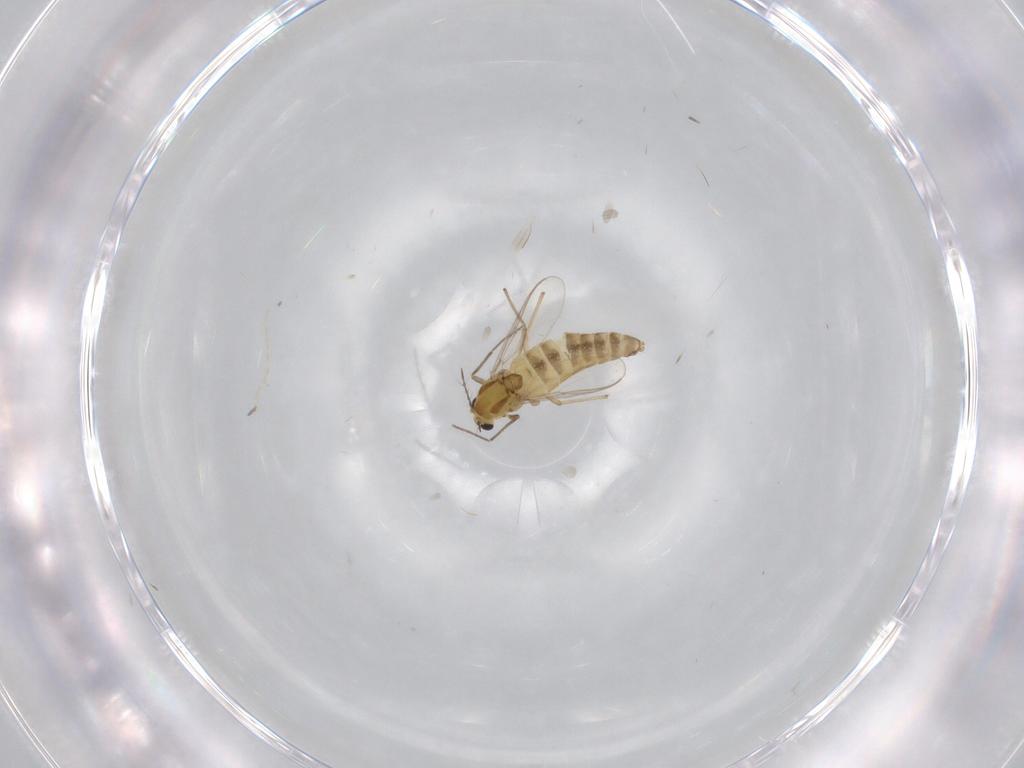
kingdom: Animalia
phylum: Arthropoda
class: Insecta
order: Diptera
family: Chironomidae
